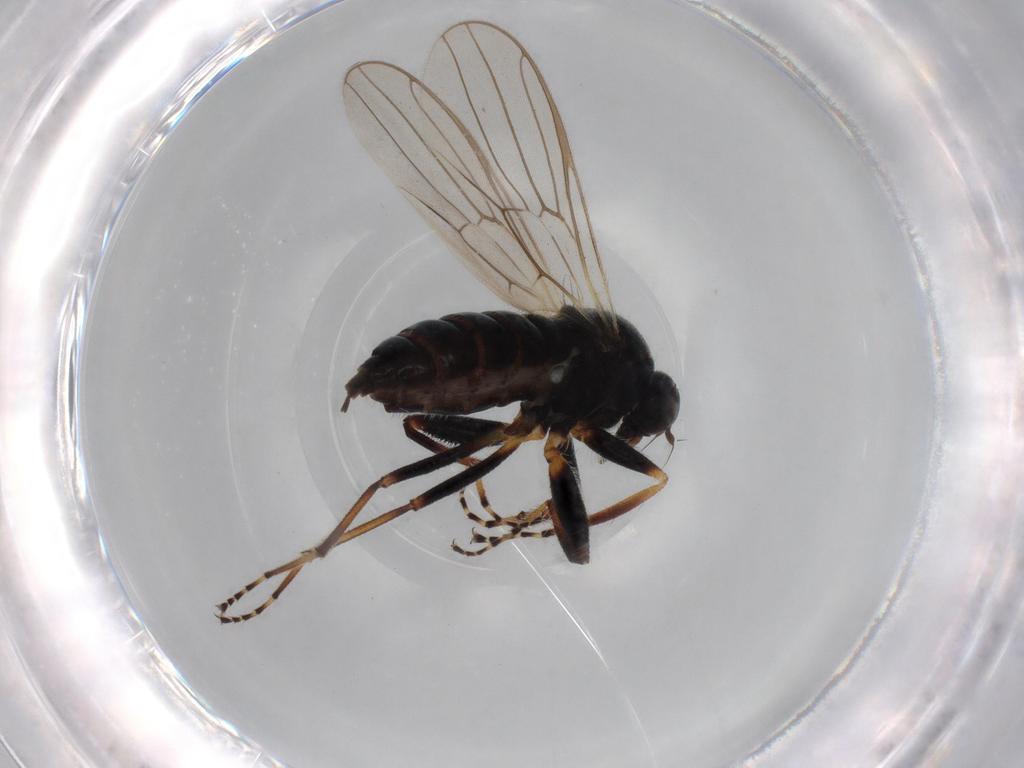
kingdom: Animalia
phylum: Arthropoda
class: Insecta
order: Diptera
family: Hybotidae
